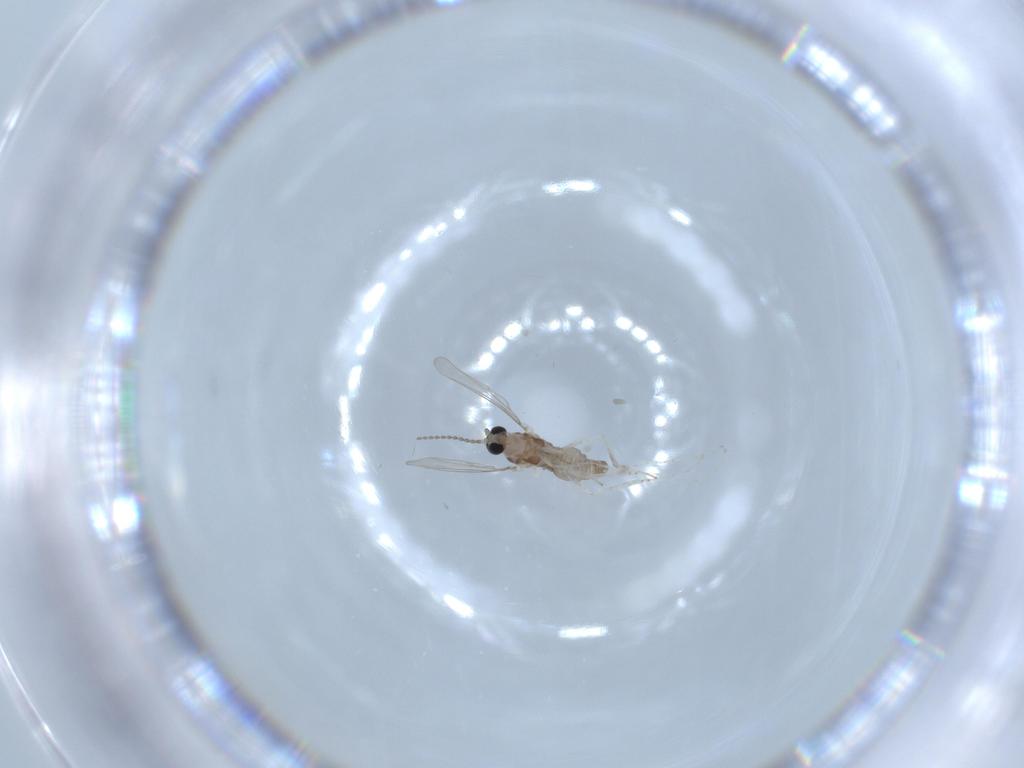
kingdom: Animalia
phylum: Arthropoda
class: Insecta
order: Diptera
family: Cecidomyiidae
